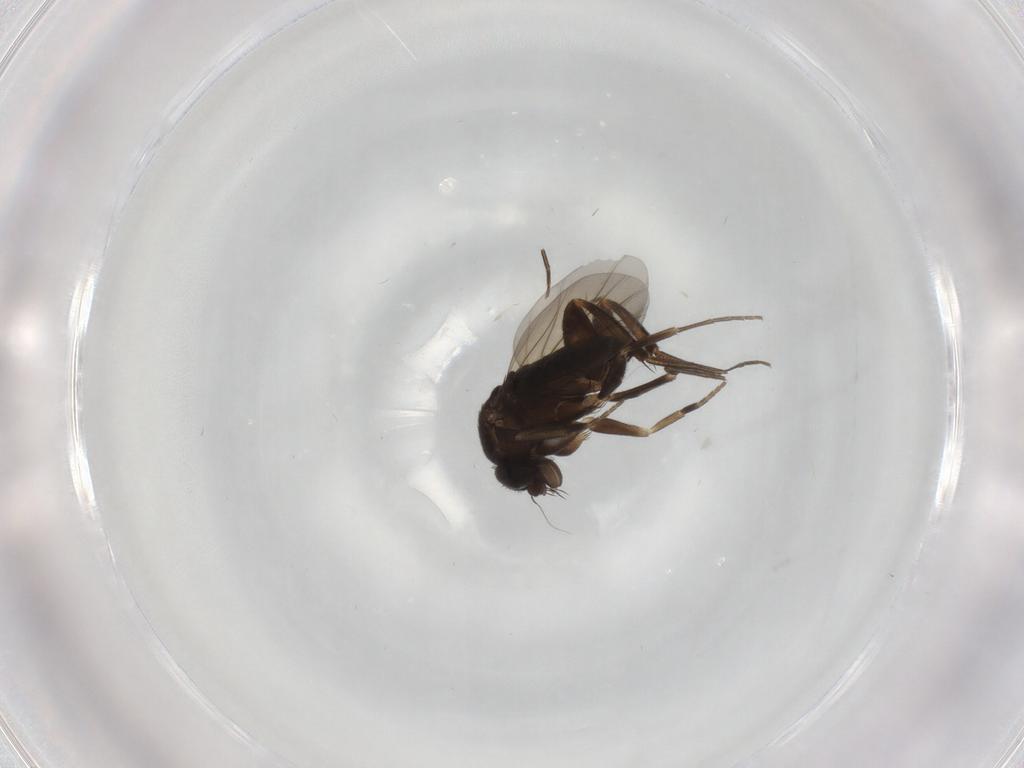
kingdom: Animalia
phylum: Arthropoda
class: Insecta
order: Diptera
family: Phoridae
